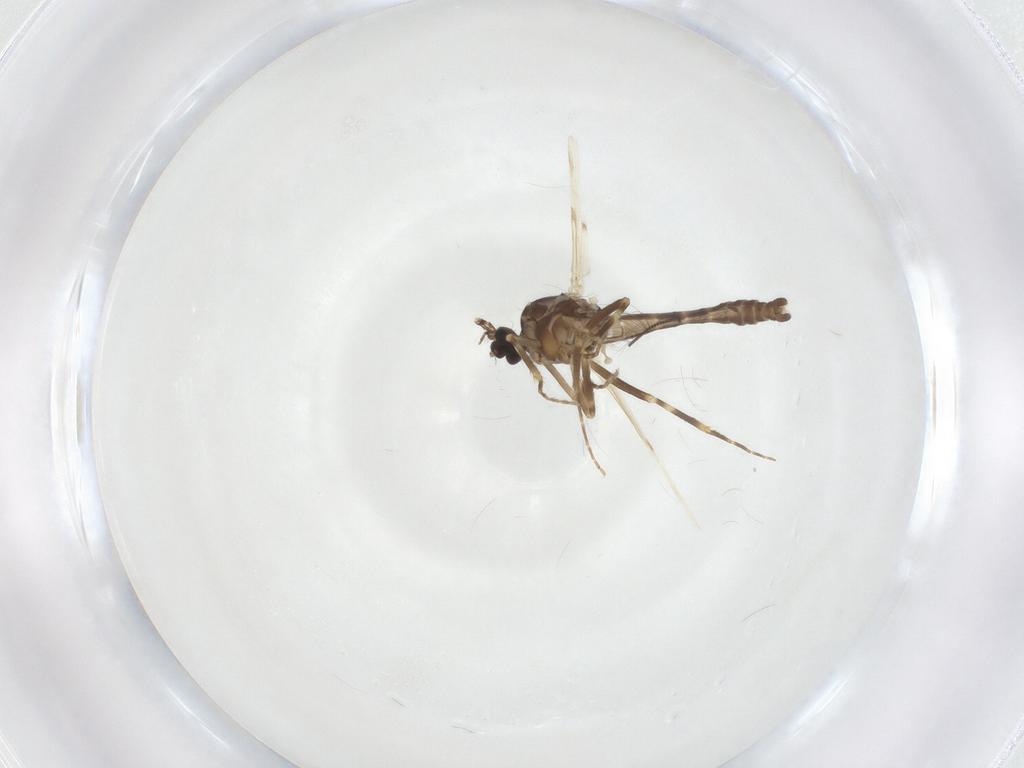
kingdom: Animalia
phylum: Arthropoda
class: Insecta
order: Diptera
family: Ceratopogonidae
